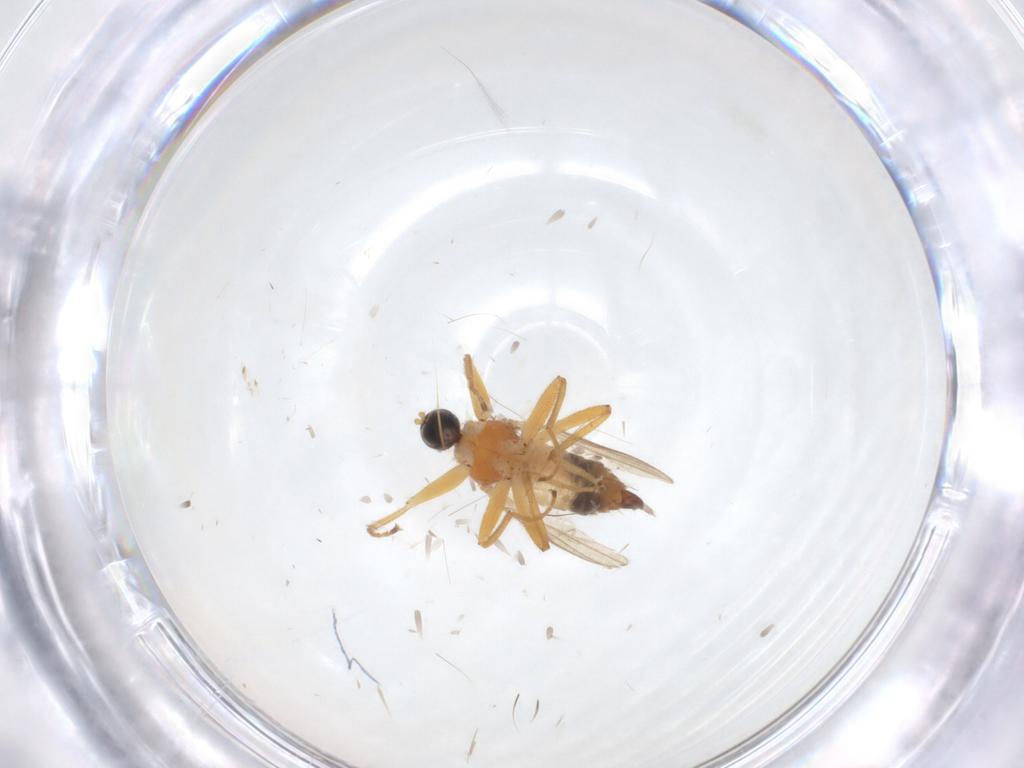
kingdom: Animalia
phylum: Arthropoda
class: Insecta
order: Diptera
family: Hybotidae
